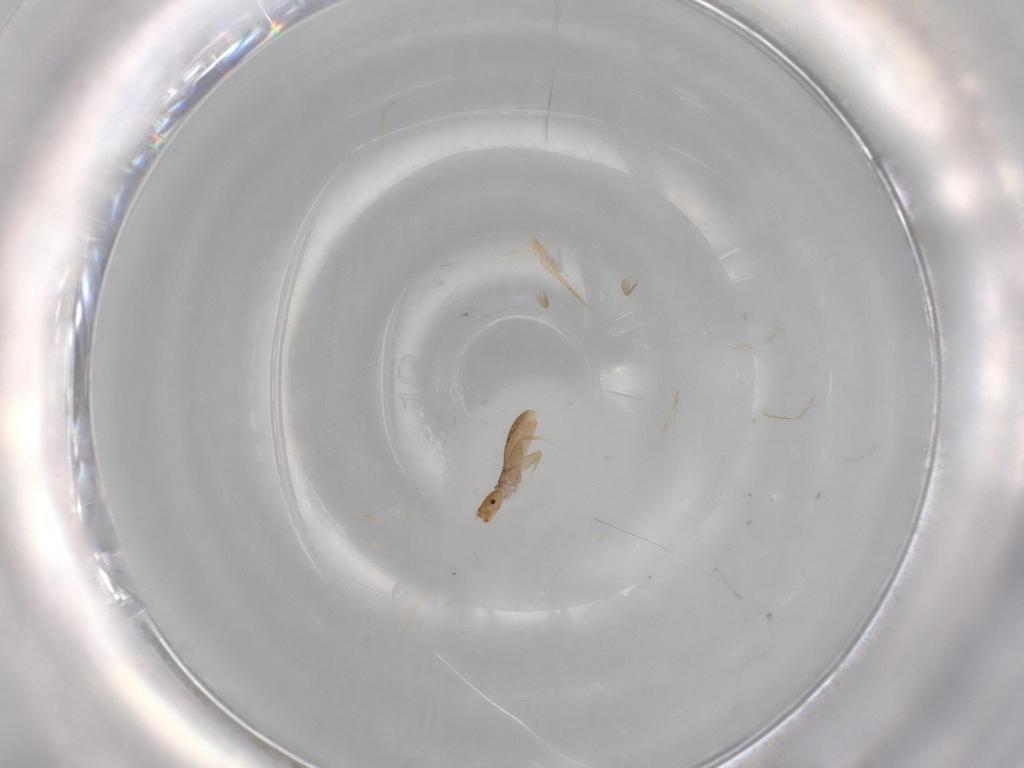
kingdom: Animalia
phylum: Arthropoda
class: Insecta
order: Psocodea
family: Liposcelididae
